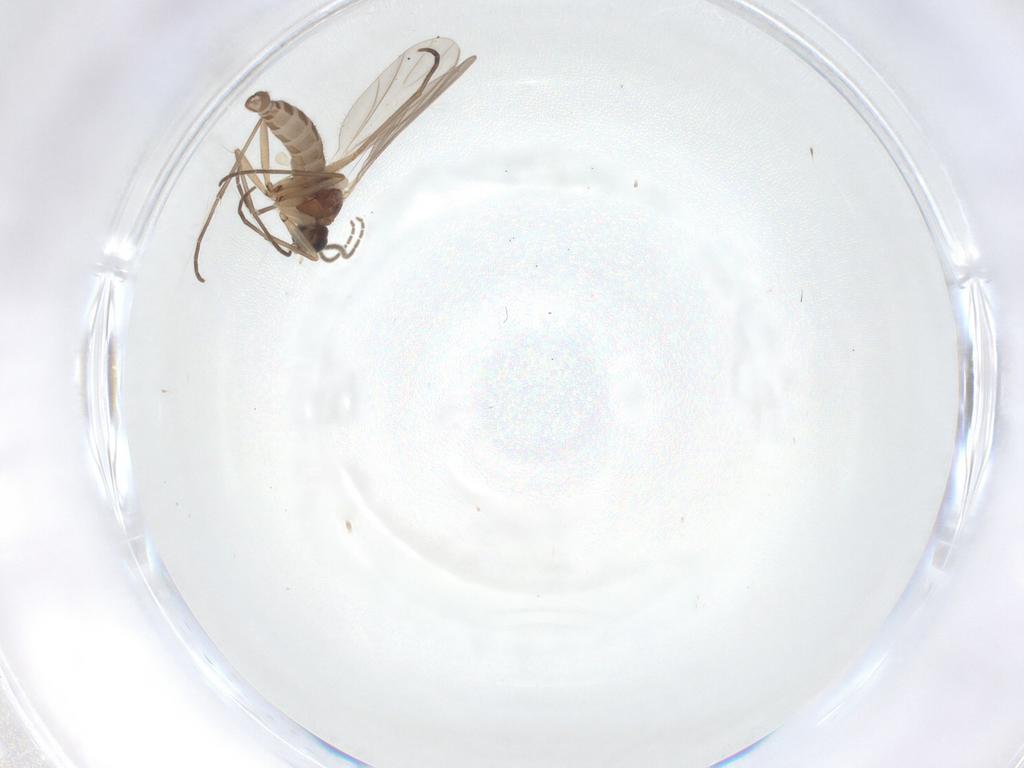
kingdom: Animalia
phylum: Arthropoda
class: Insecta
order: Diptera
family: Sciaridae
